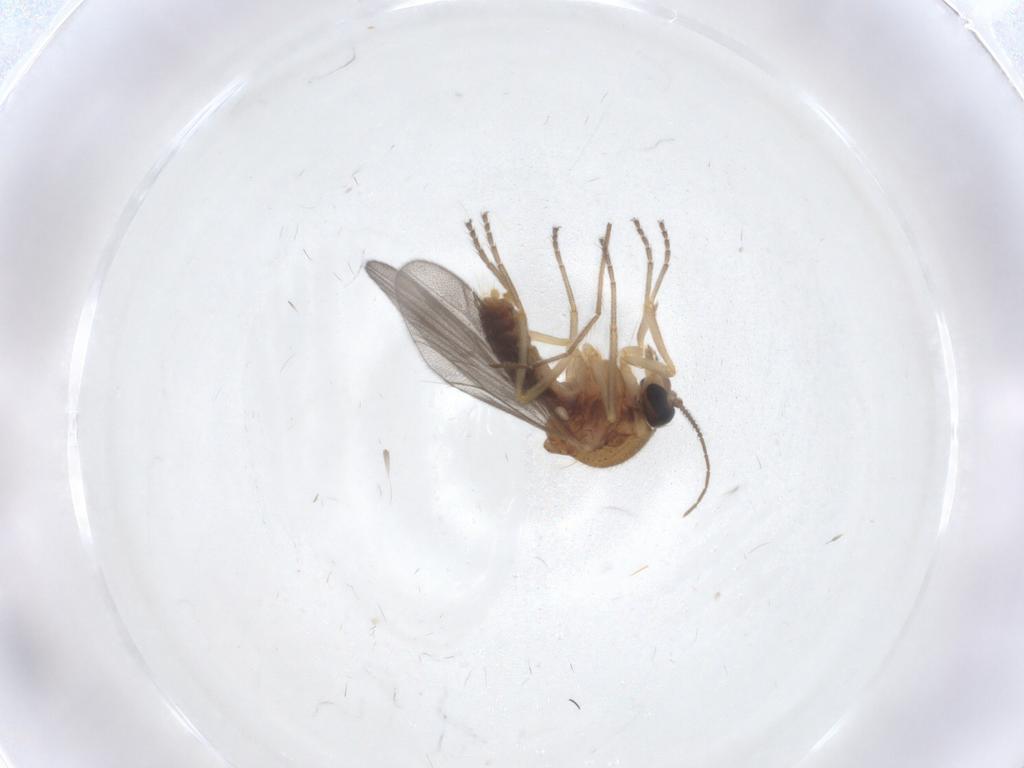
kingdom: Animalia
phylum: Arthropoda
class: Insecta
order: Diptera
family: Ceratopogonidae
